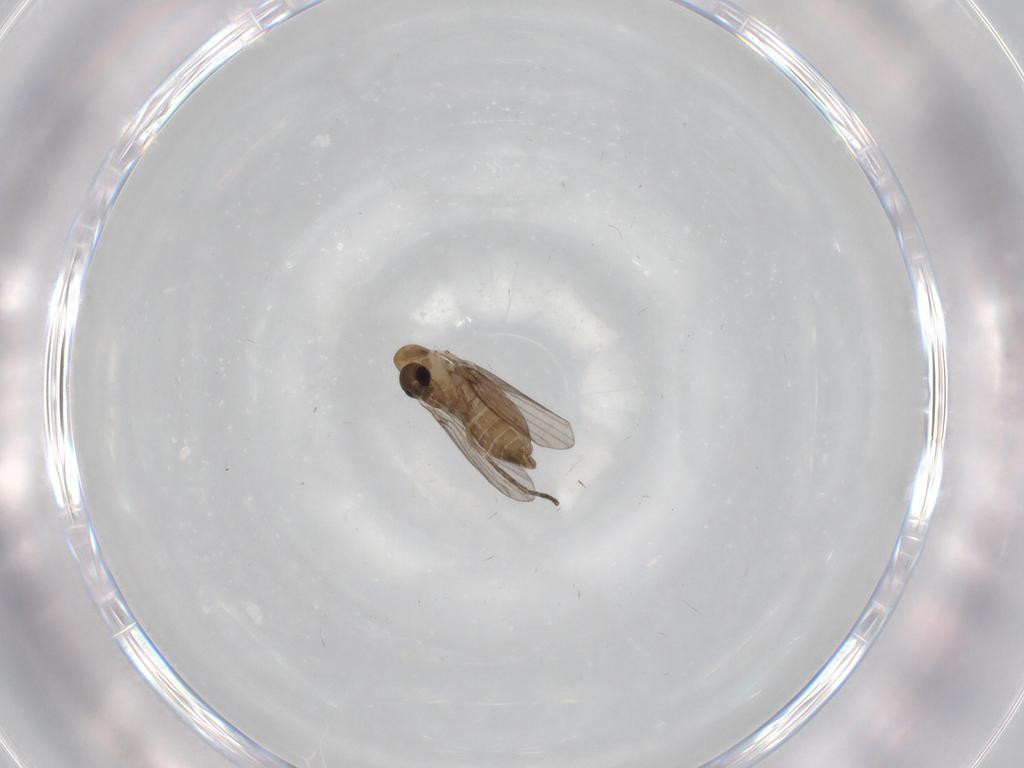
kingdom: Animalia
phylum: Arthropoda
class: Insecta
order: Diptera
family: Psychodidae
